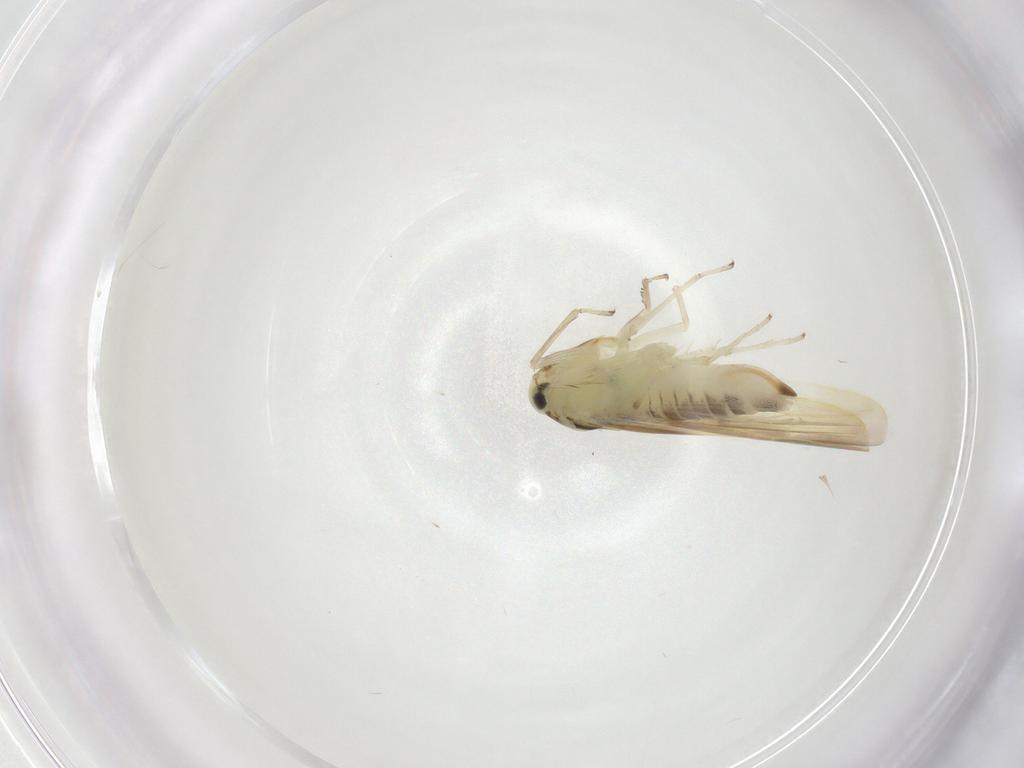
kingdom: Animalia
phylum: Arthropoda
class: Insecta
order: Hemiptera
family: Cicadellidae
